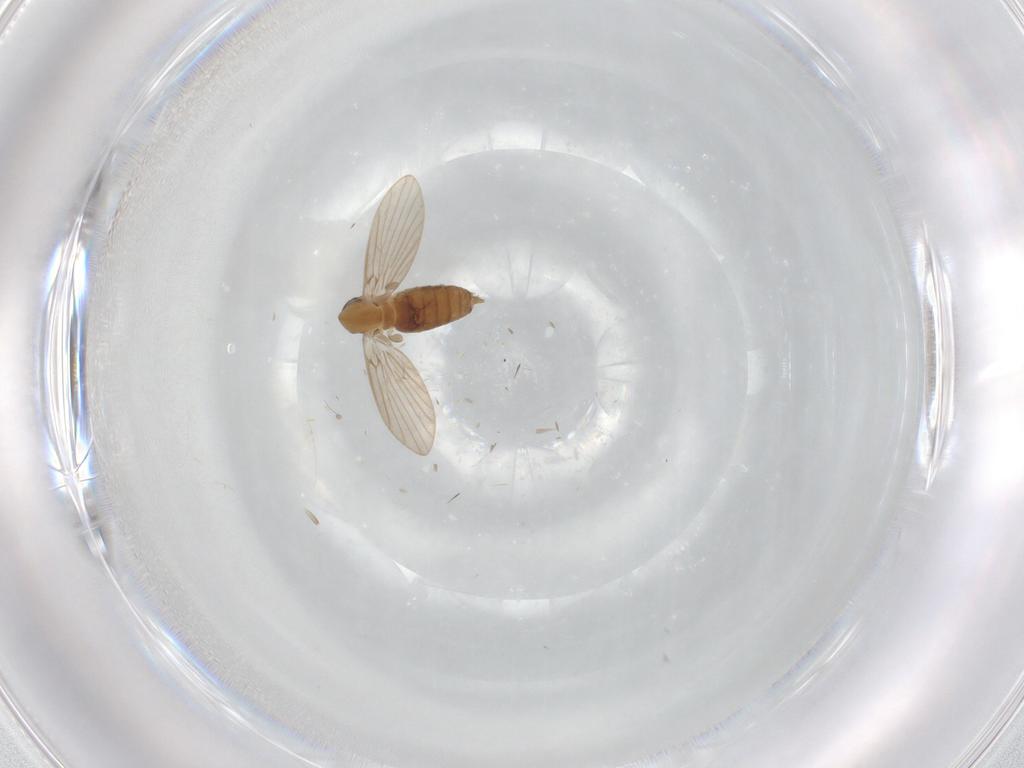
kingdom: Animalia
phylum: Arthropoda
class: Insecta
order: Diptera
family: Culicidae
